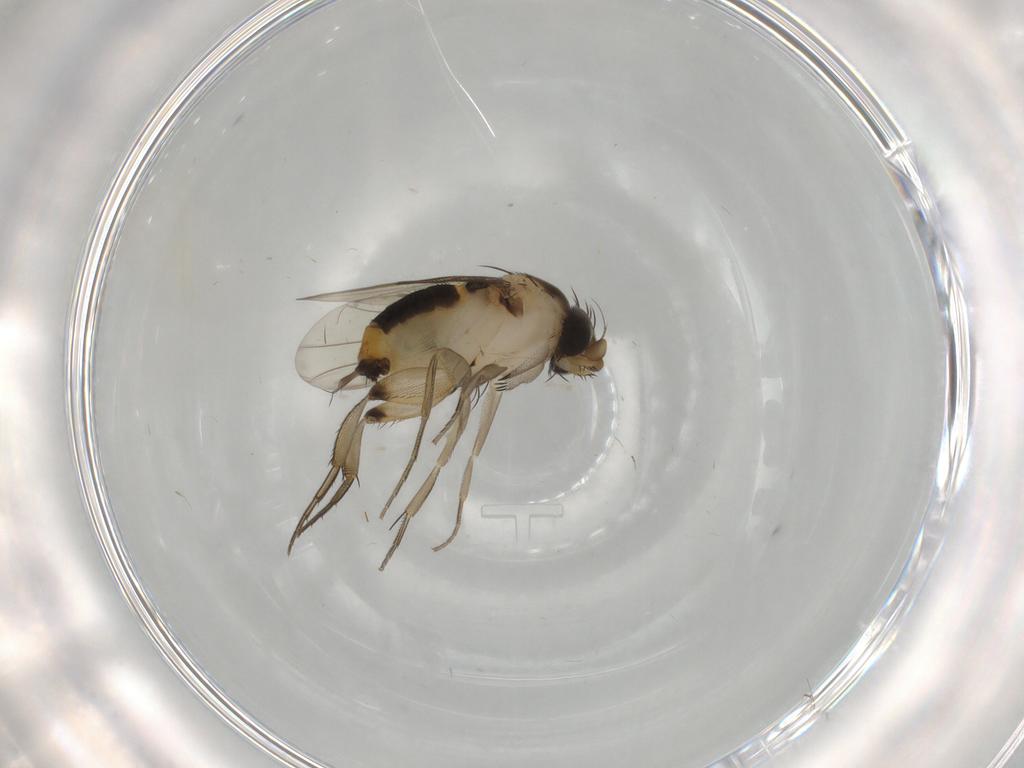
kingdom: Animalia
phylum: Arthropoda
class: Insecta
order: Diptera
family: Phoridae
